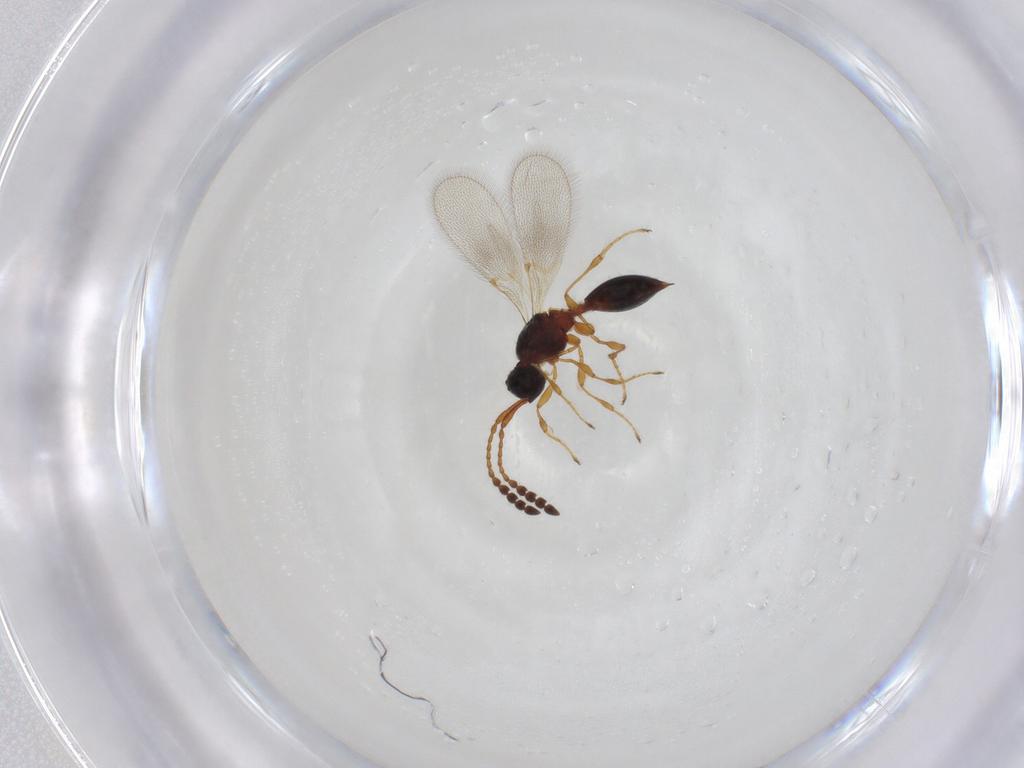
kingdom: Animalia
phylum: Arthropoda
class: Insecta
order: Hymenoptera
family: Diapriidae
